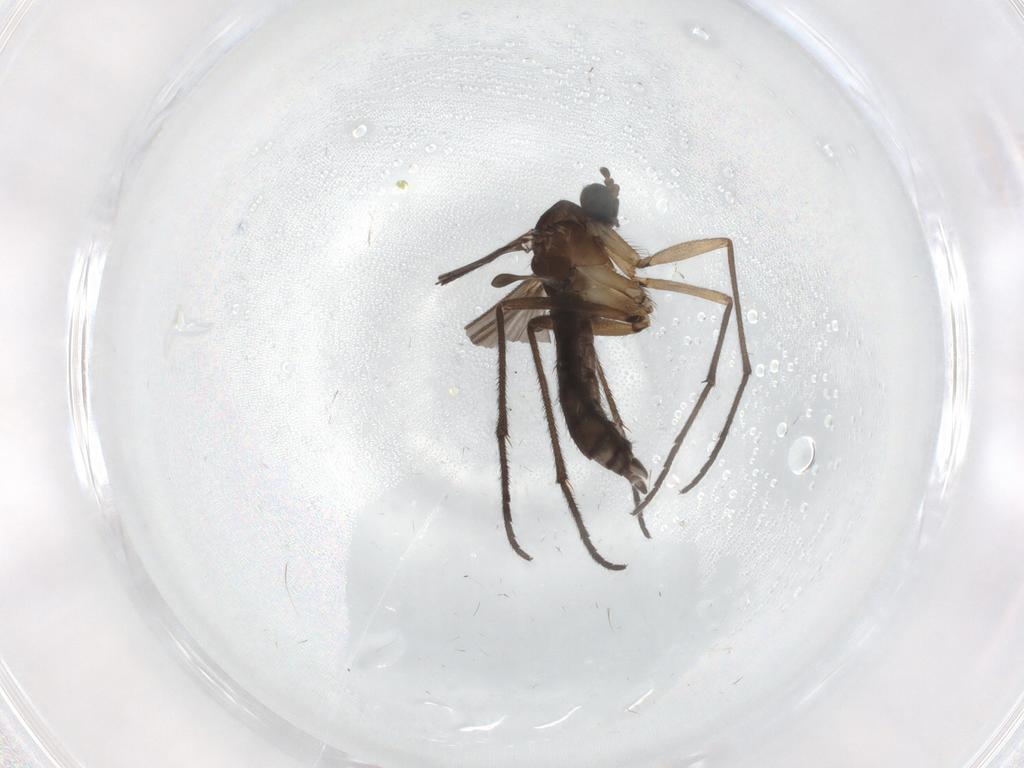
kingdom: Animalia
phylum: Arthropoda
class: Insecta
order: Diptera
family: Sciaridae
